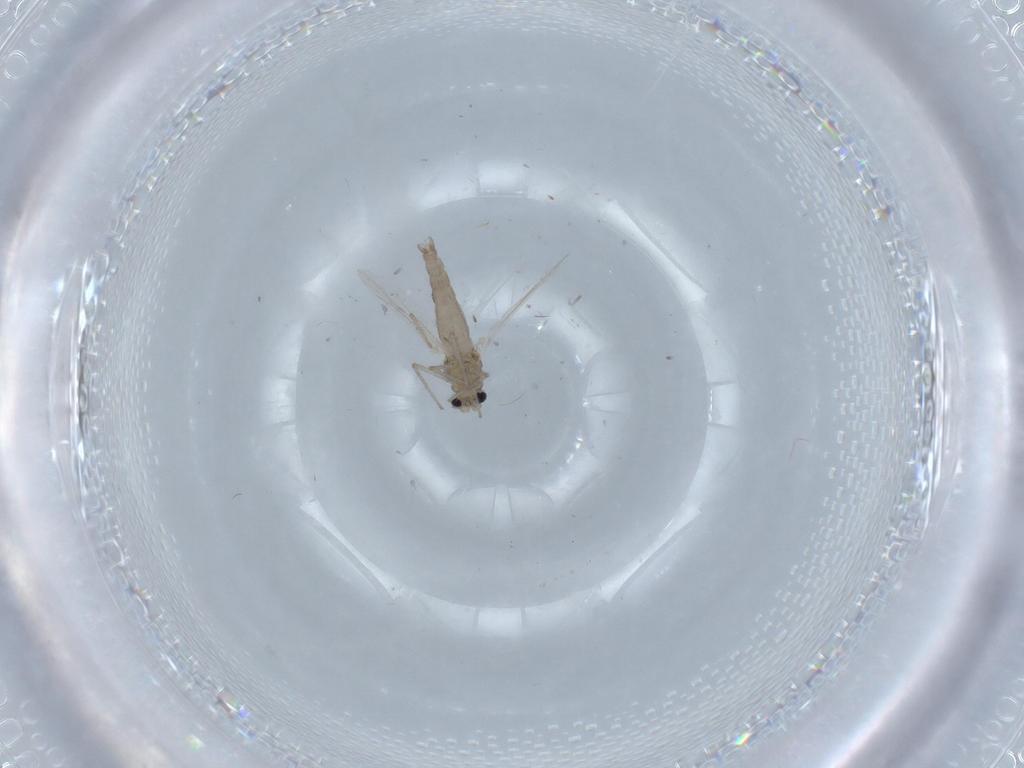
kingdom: Animalia
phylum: Arthropoda
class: Insecta
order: Diptera
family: Chironomidae
